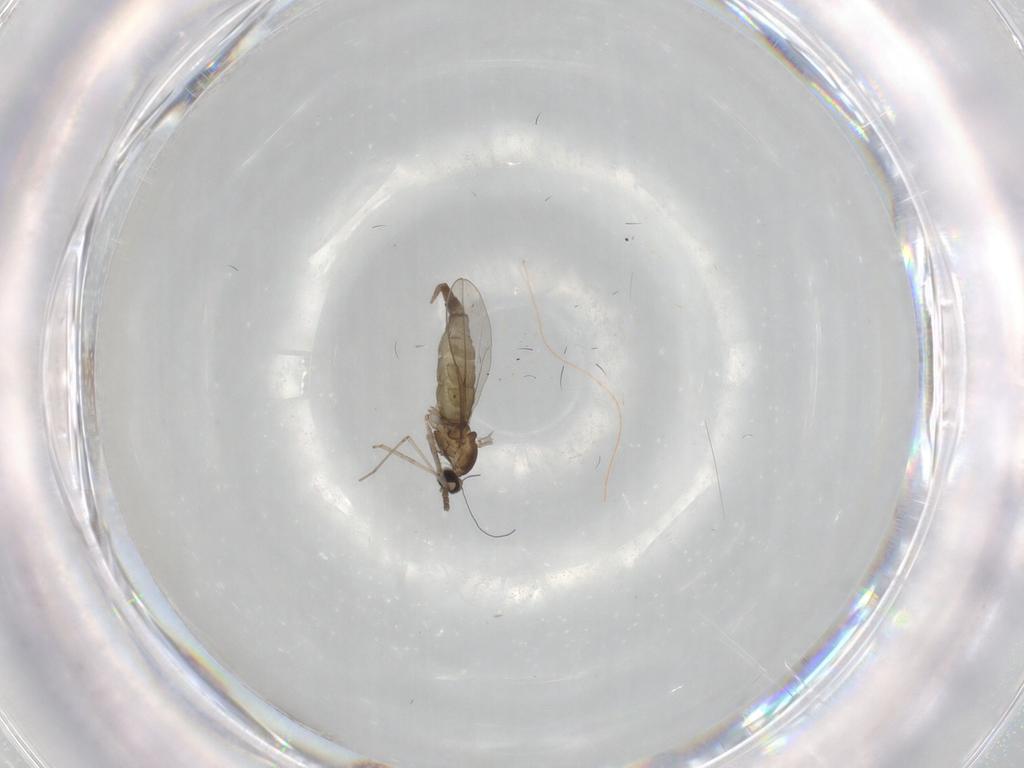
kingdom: Animalia
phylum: Arthropoda
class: Insecta
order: Diptera
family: Cecidomyiidae
